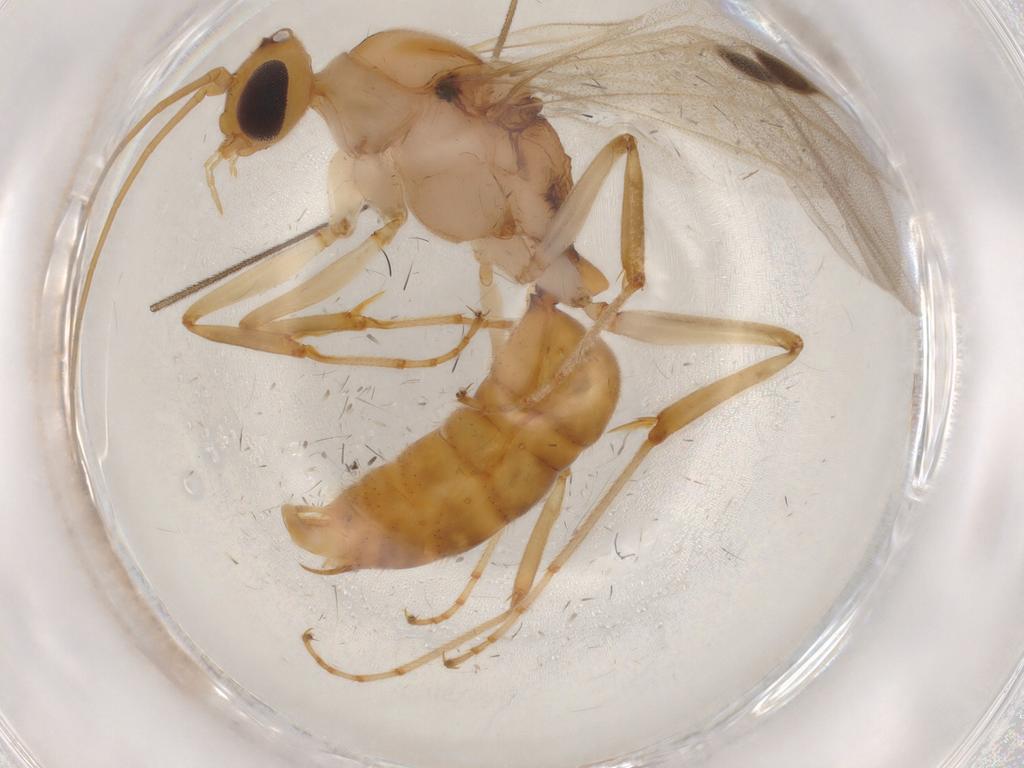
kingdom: Animalia
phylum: Arthropoda
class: Insecta
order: Hymenoptera
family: Formicidae
